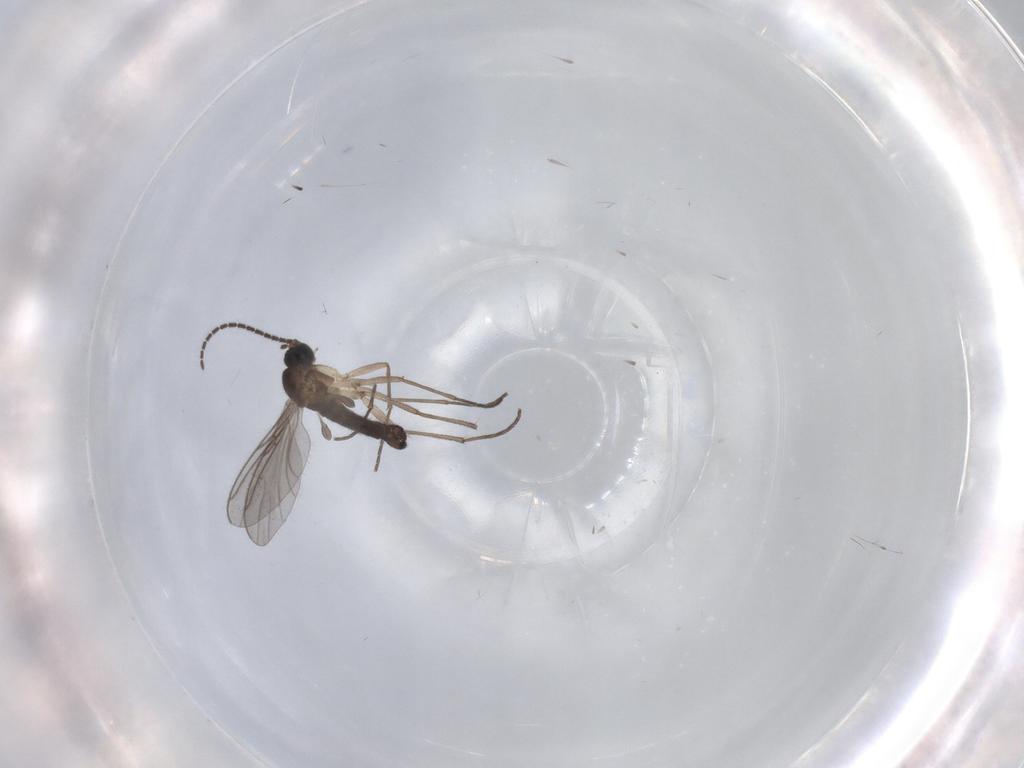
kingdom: Animalia
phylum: Arthropoda
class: Insecta
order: Diptera
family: Sciaridae
